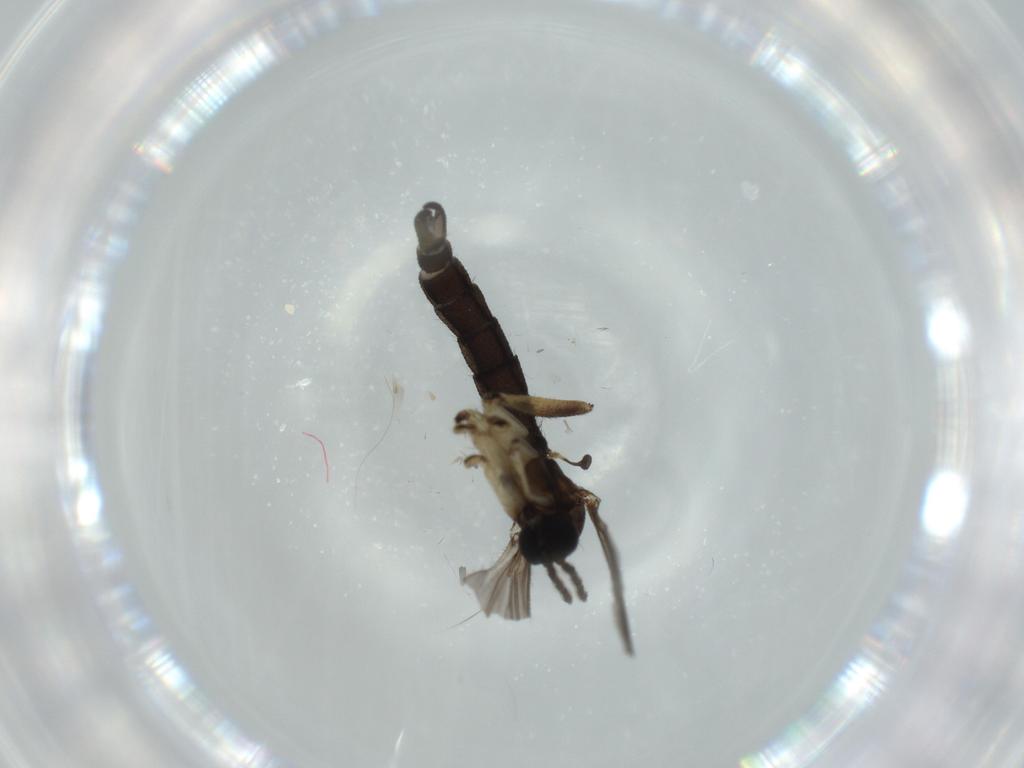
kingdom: Animalia
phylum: Arthropoda
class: Insecta
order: Diptera
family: Sciaridae
